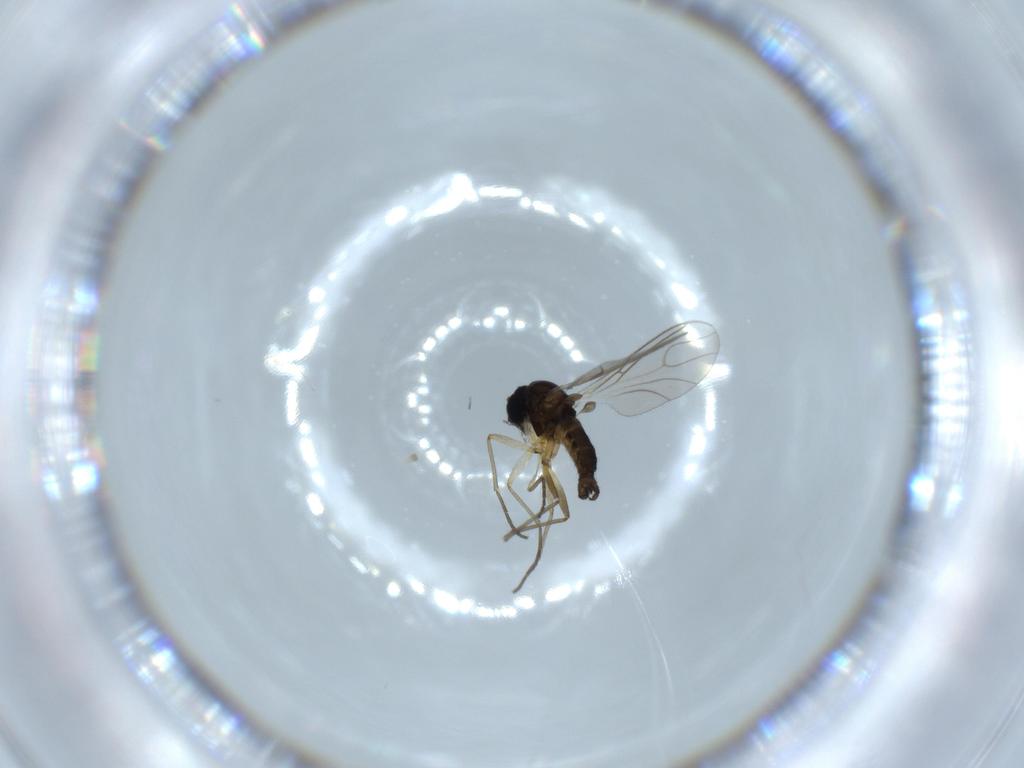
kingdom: Animalia
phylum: Arthropoda
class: Insecta
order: Diptera
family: Sciaridae
